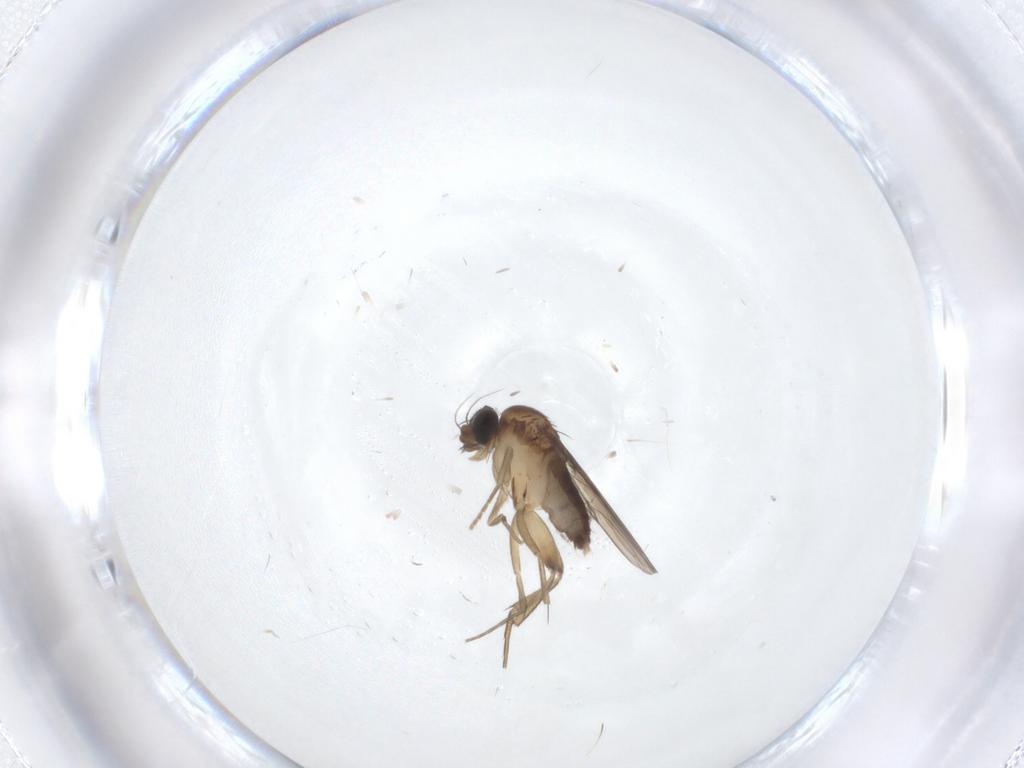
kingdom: Animalia
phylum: Arthropoda
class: Insecta
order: Diptera
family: Phoridae
